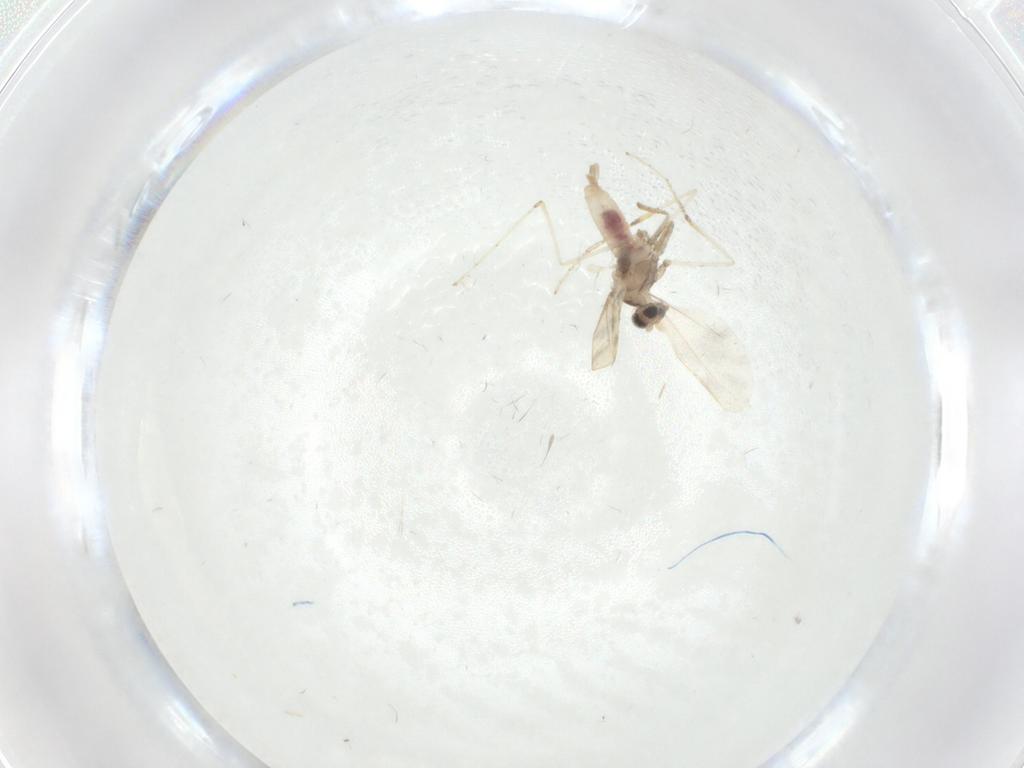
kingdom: Animalia
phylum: Arthropoda
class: Insecta
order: Diptera
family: Cecidomyiidae
